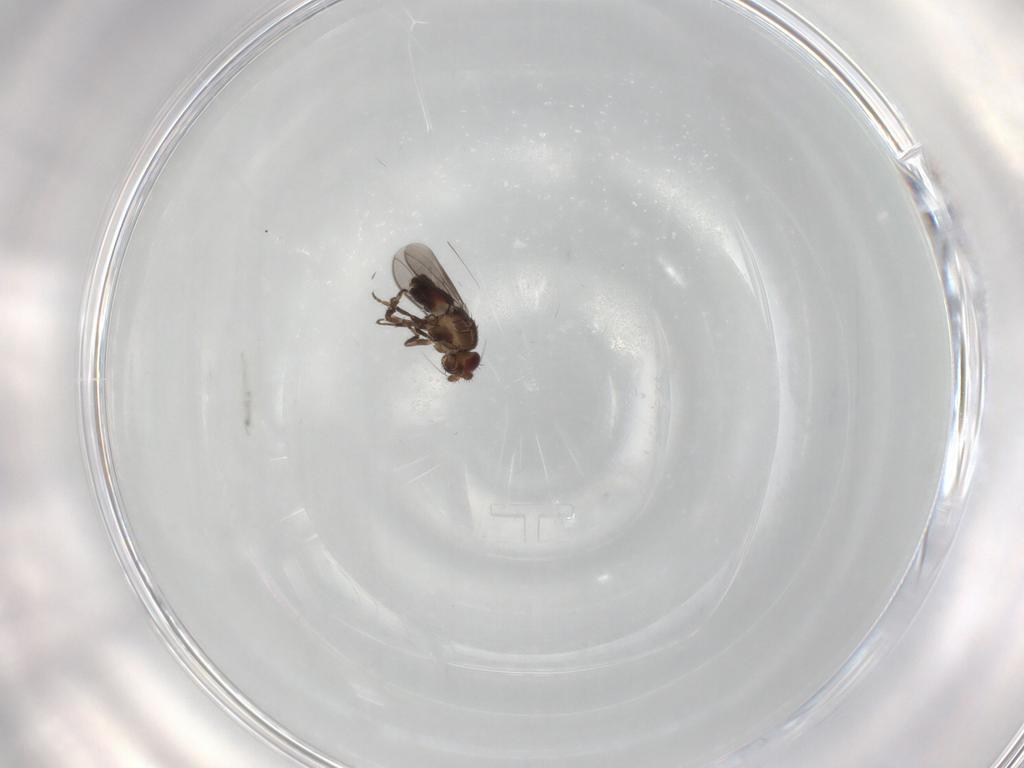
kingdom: Animalia
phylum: Arthropoda
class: Insecta
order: Diptera
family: Sphaeroceridae
